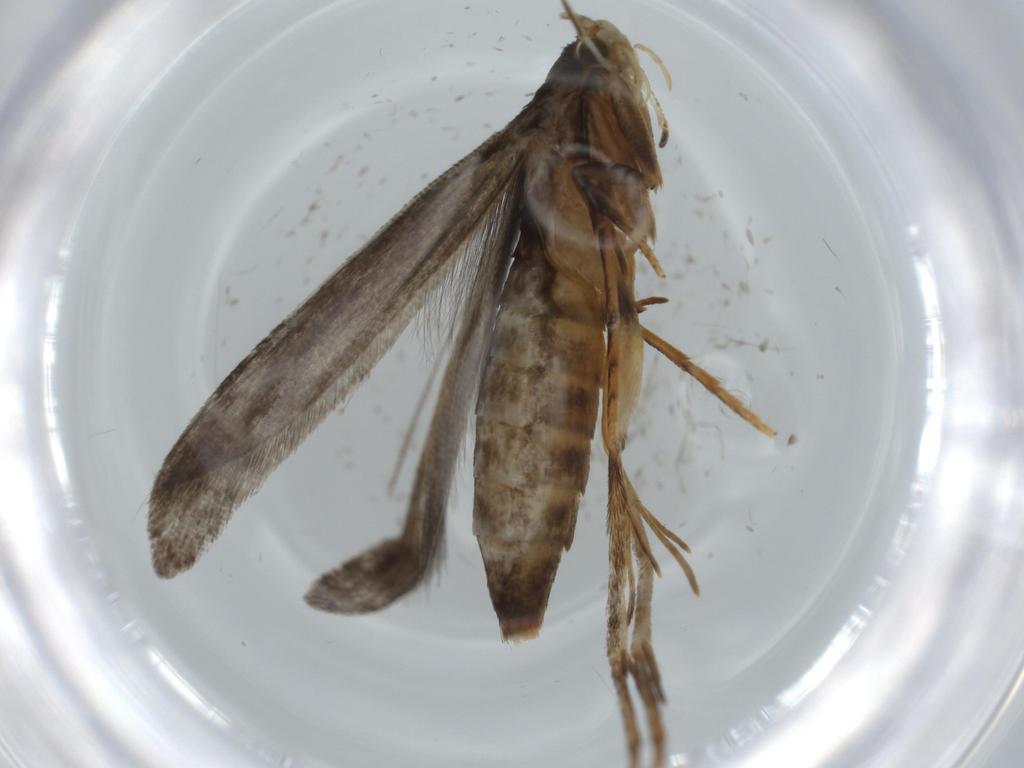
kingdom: Animalia
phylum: Arthropoda
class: Insecta
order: Lepidoptera
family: Tineidae
